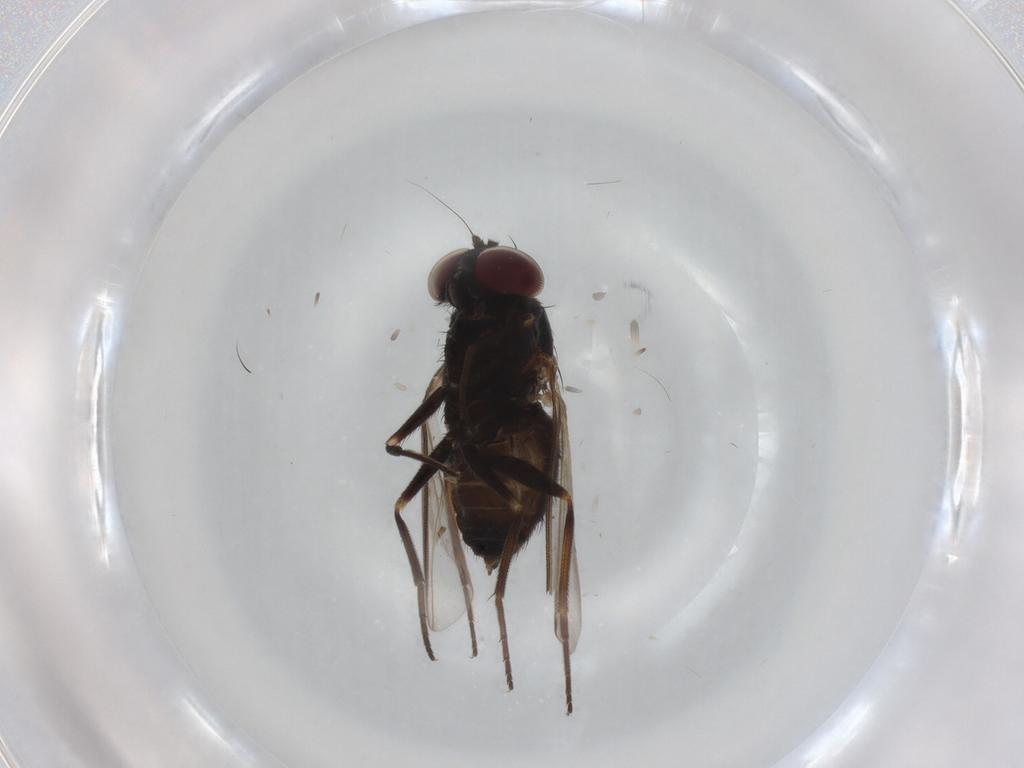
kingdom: Animalia
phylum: Arthropoda
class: Insecta
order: Diptera
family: Dolichopodidae
